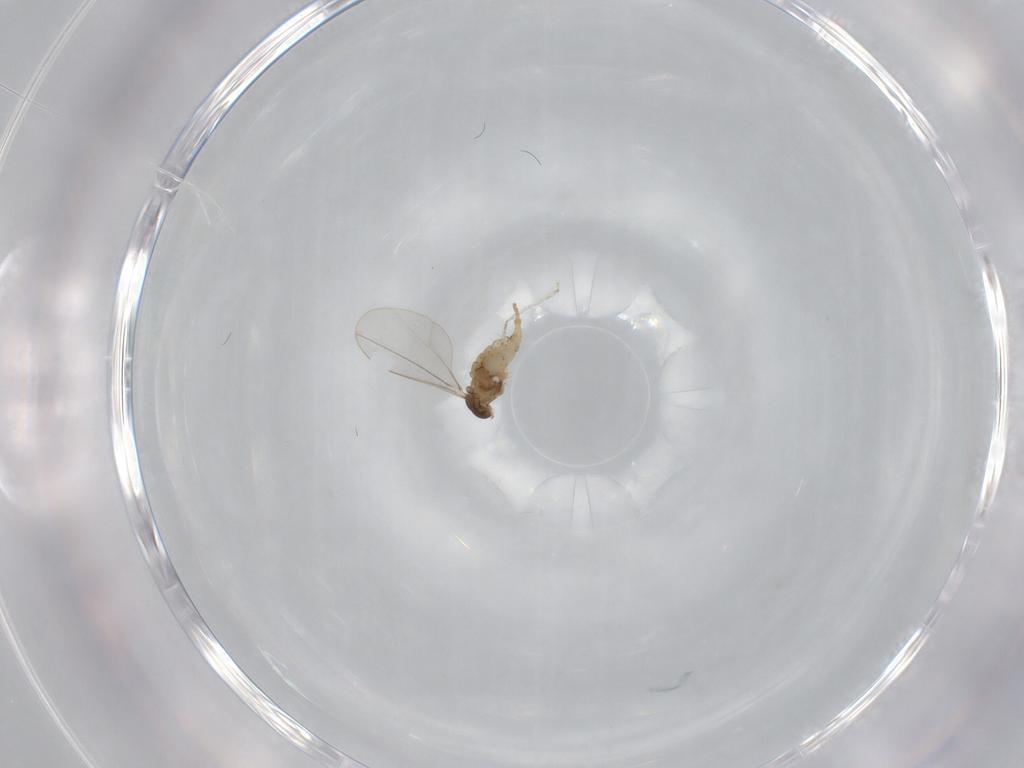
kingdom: Animalia
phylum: Arthropoda
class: Insecta
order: Diptera
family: Cecidomyiidae
